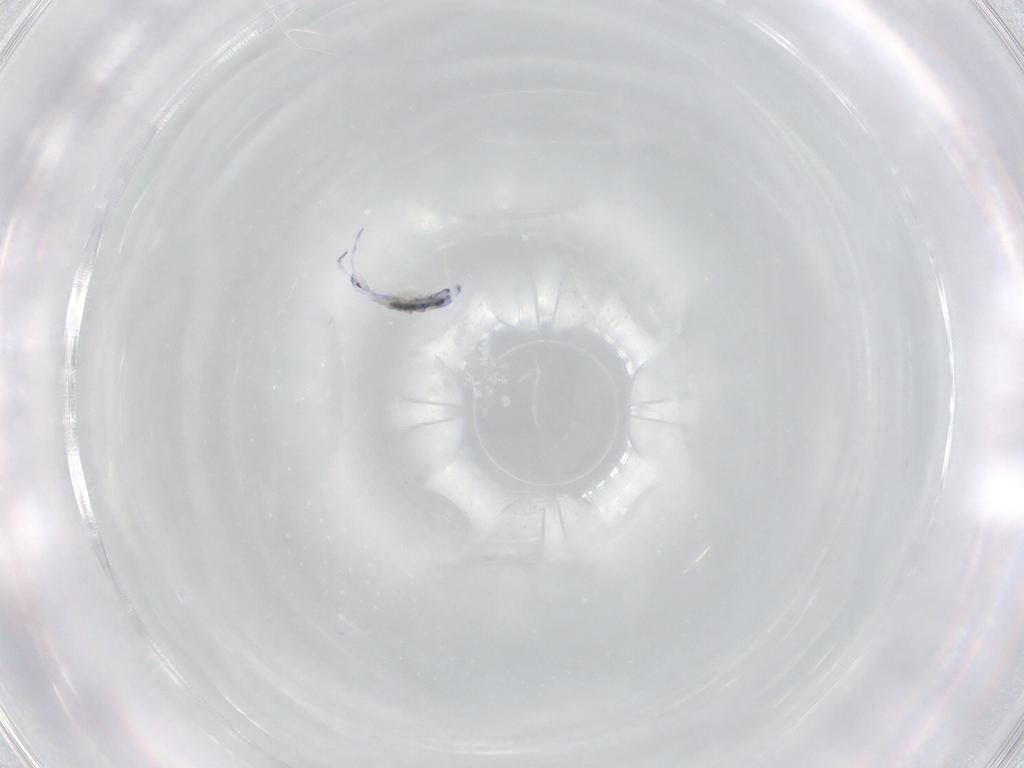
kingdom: Animalia
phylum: Arthropoda
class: Collembola
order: Entomobryomorpha
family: Entomobryidae
